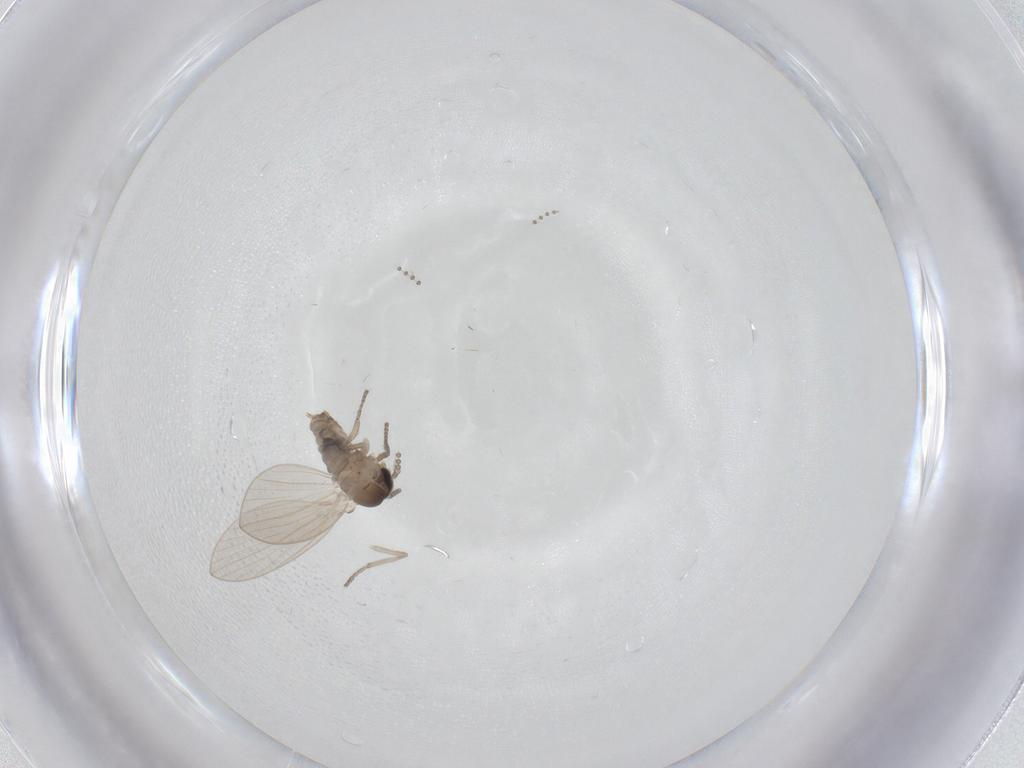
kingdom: Animalia
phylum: Arthropoda
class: Insecta
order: Diptera
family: Psychodidae
